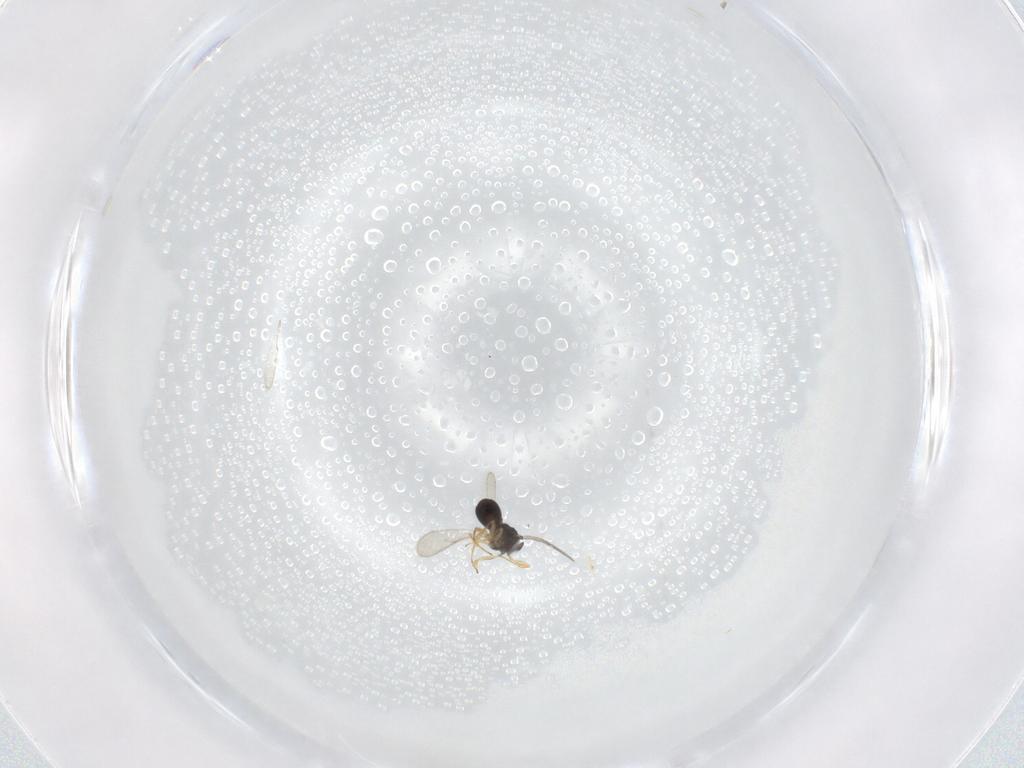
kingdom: Animalia
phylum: Arthropoda
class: Insecta
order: Hymenoptera
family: Scelionidae
